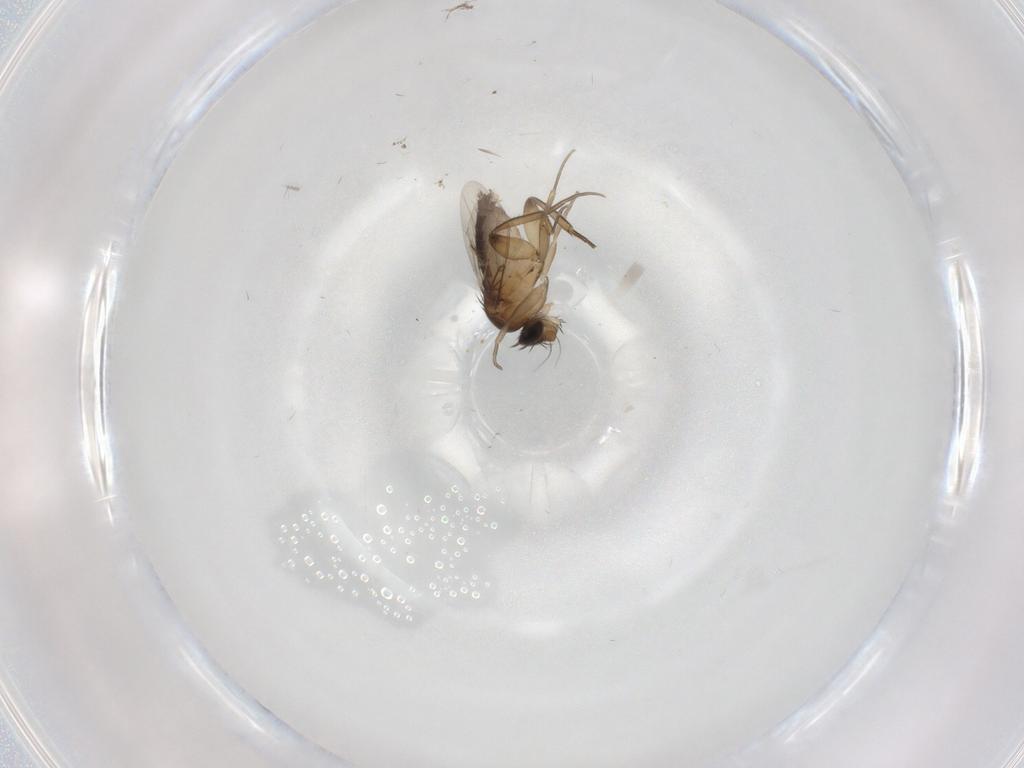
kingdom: Animalia
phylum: Arthropoda
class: Insecta
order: Diptera
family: Phoridae
